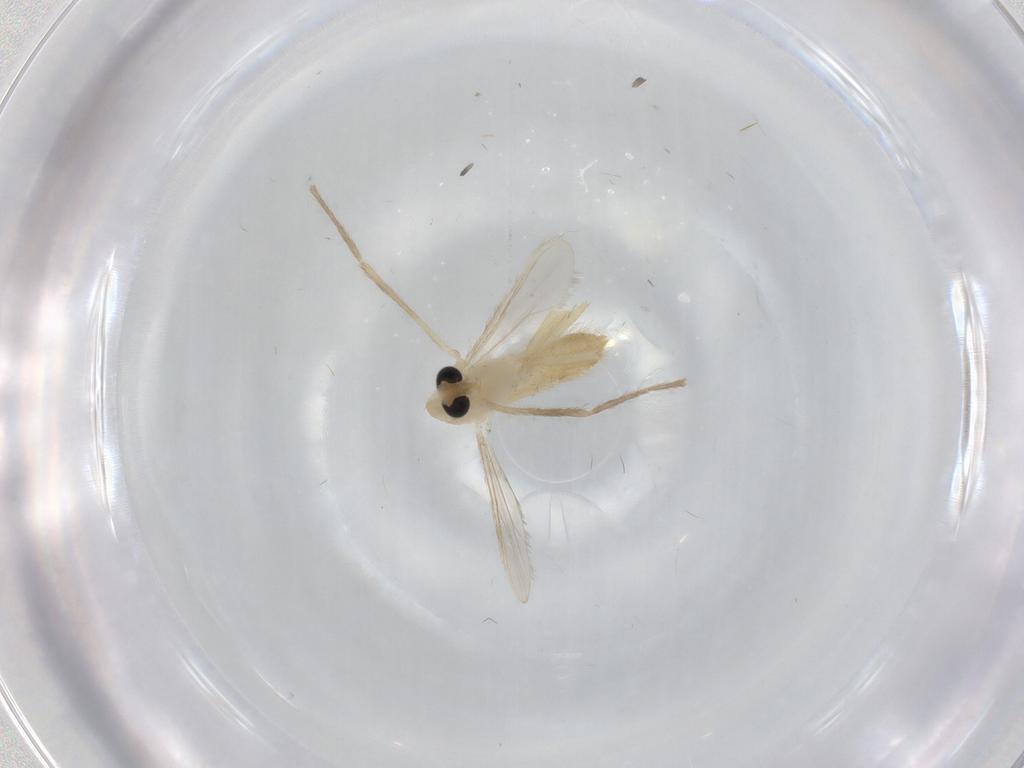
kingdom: Animalia
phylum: Arthropoda
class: Insecta
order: Diptera
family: Chironomidae
